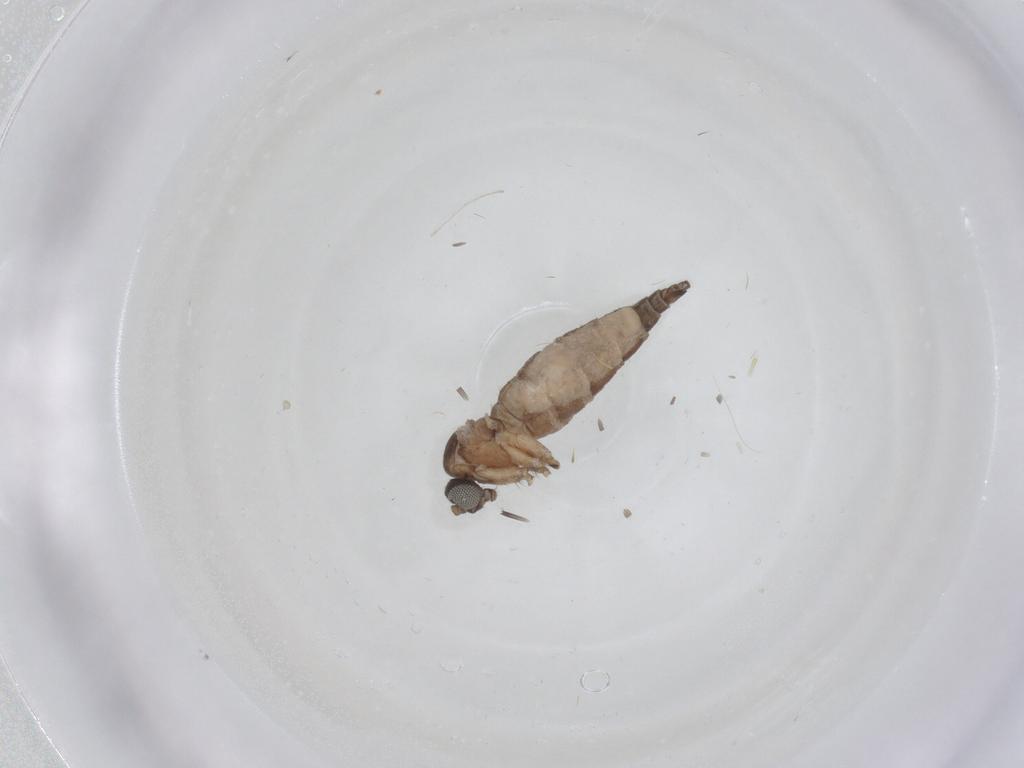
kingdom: Animalia
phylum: Arthropoda
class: Insecta
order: Diptera
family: Sciaridae
